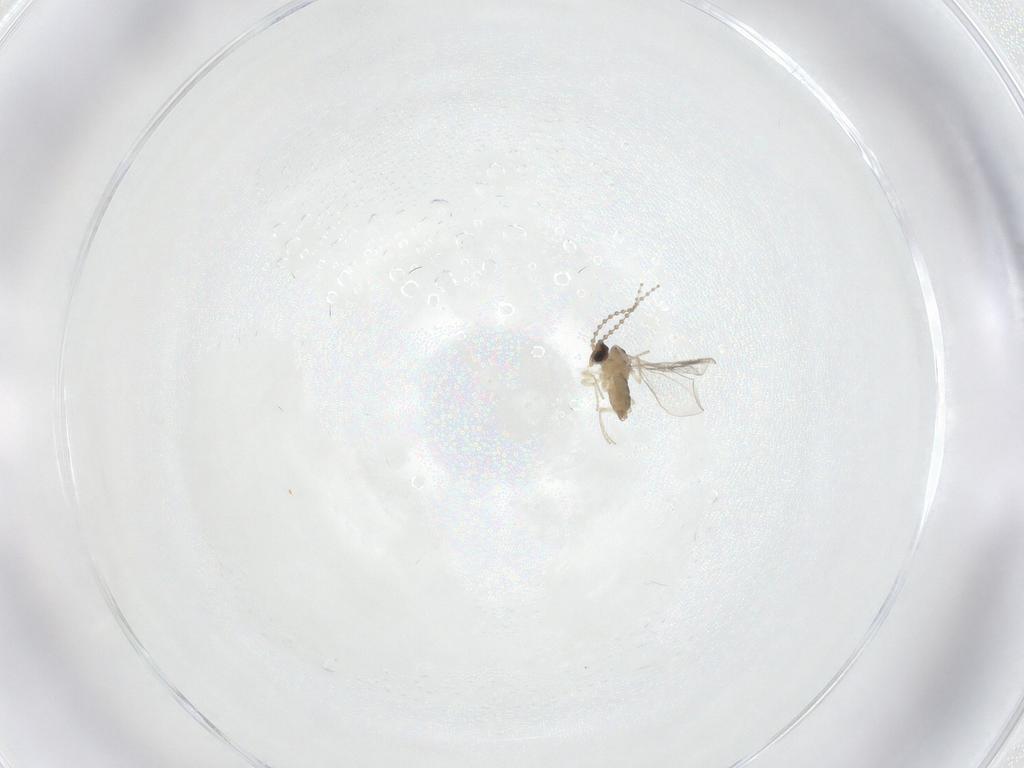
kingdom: Animalia
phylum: Arthropoda
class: Insecta
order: Diptera
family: Cecidomyiidae
